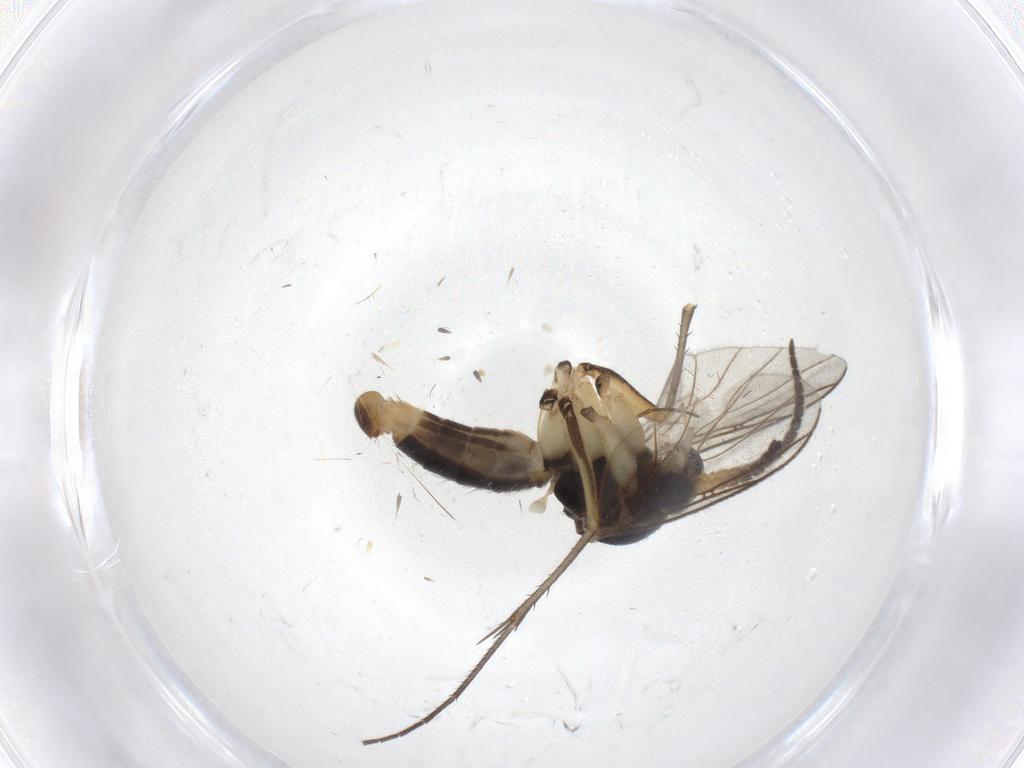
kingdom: Animalia
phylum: Arthropoda
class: Insecta
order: Diptera
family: Mycetophilidae
